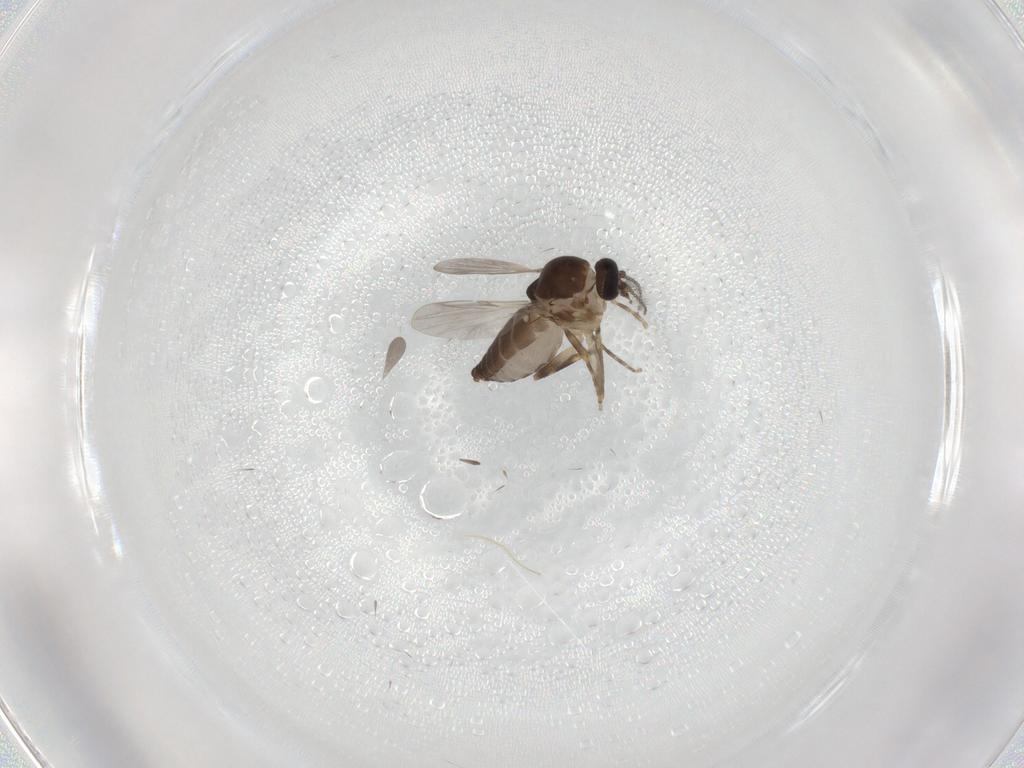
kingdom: Animalia
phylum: Arthropoda
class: Insecta
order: Diptera
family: Ceratopogonidae
